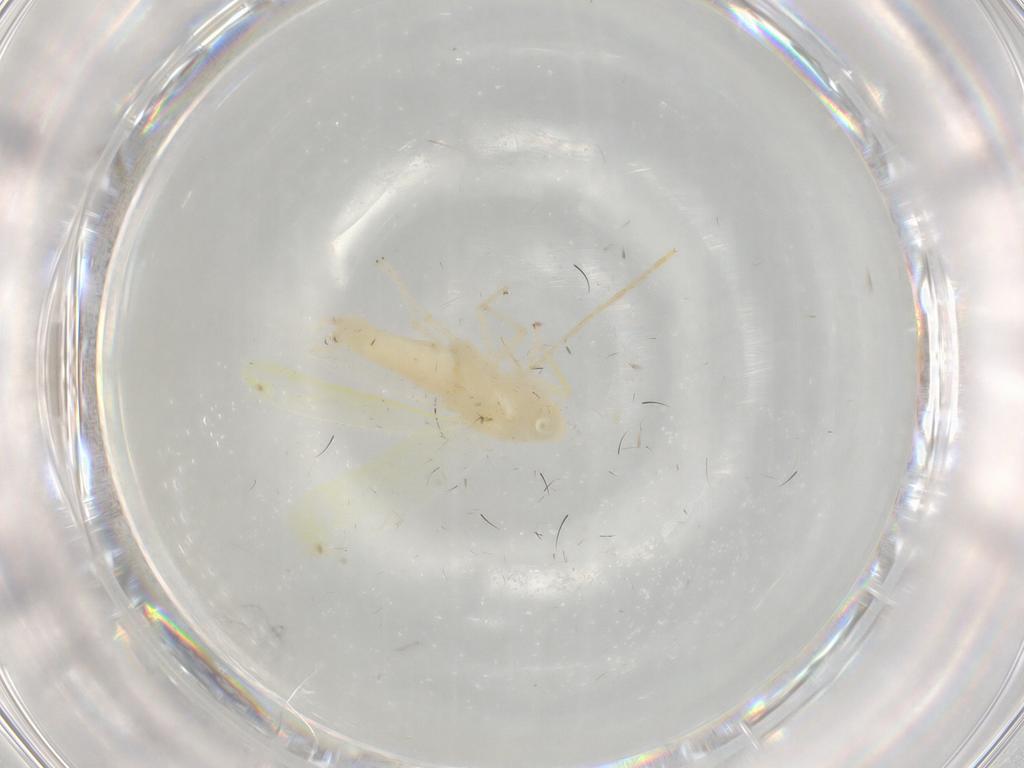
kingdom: Animalia
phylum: Arthropoda
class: Insecta
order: Hemiptera
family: Cicadellidae
